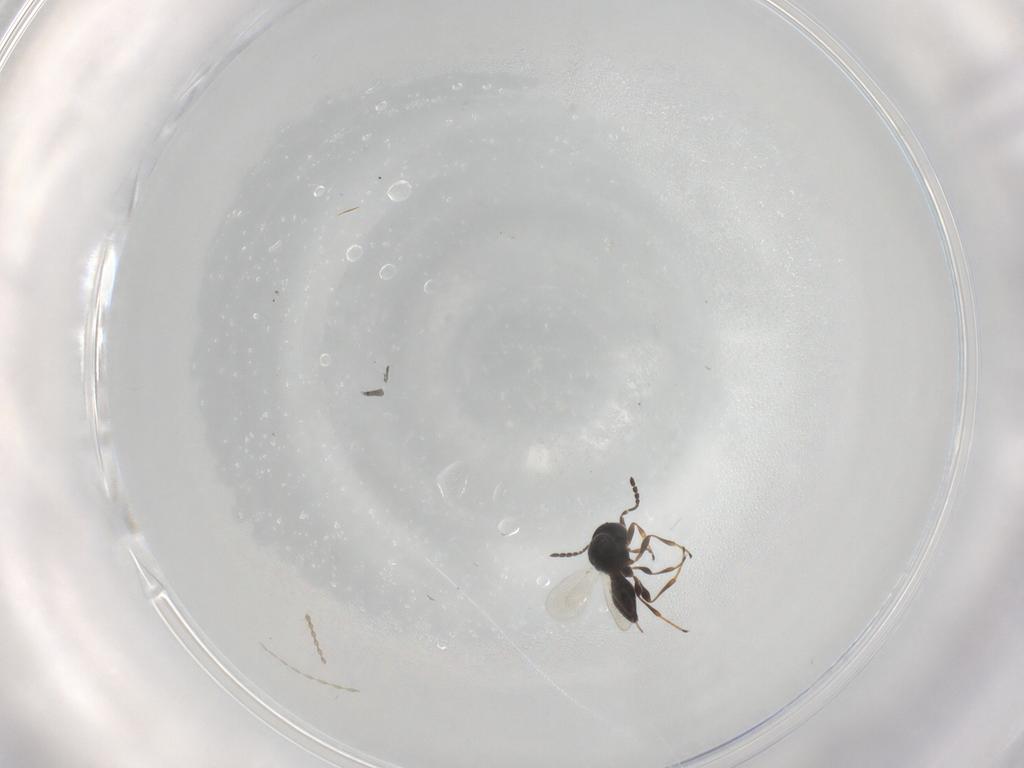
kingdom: Animalia
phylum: Arthropoda
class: Insecta
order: Hymenoptera
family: Platygastridae
